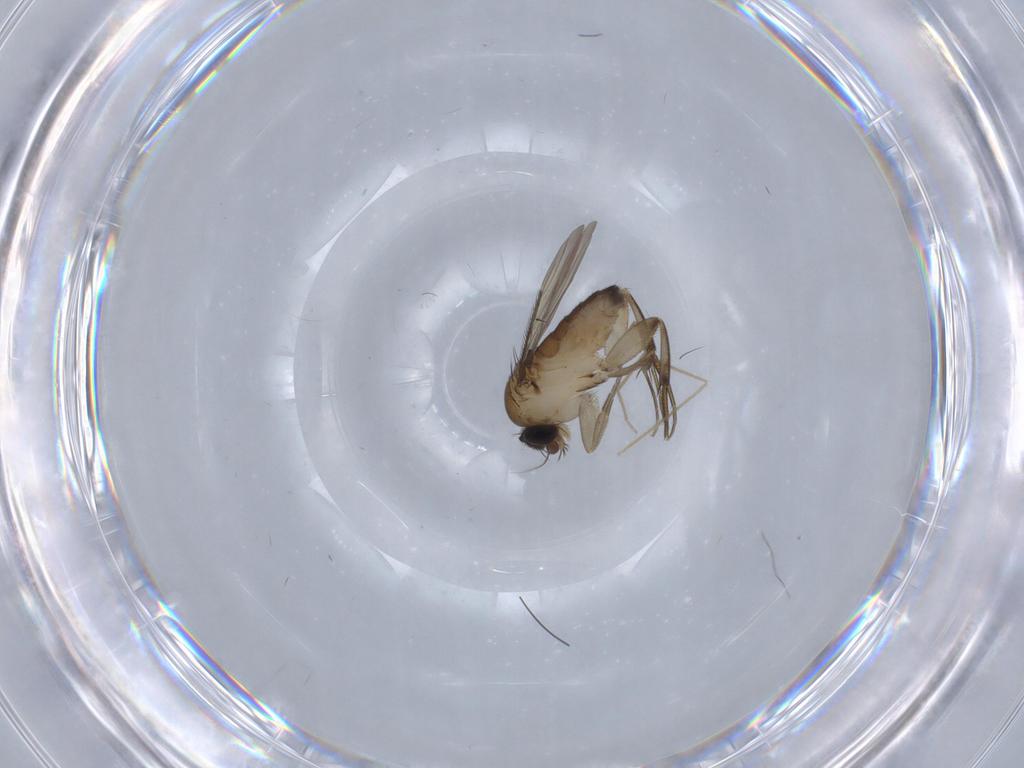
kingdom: Animalia
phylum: Arthropoda
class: Insecta
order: Diptera
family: Phoridae
